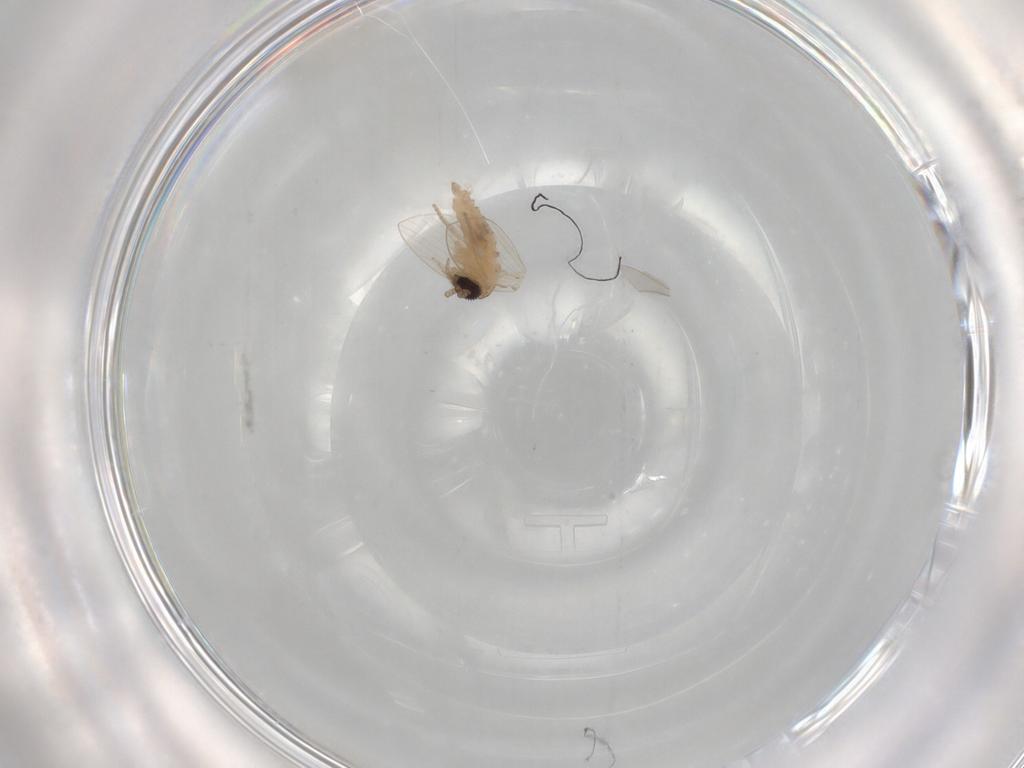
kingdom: Animalia
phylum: Arthropoda
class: Insecta
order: Diptera
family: Psychodidae
